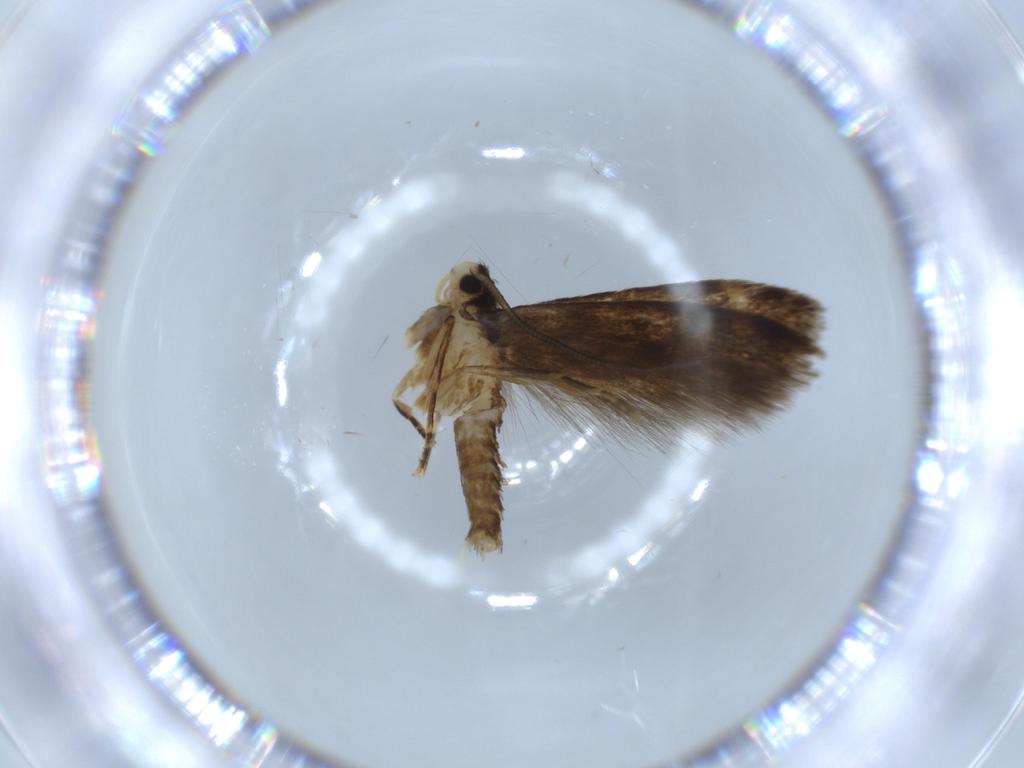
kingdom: Animalia
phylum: Arthropoda
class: Insecta
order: Lepidoptera
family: Tineidae
